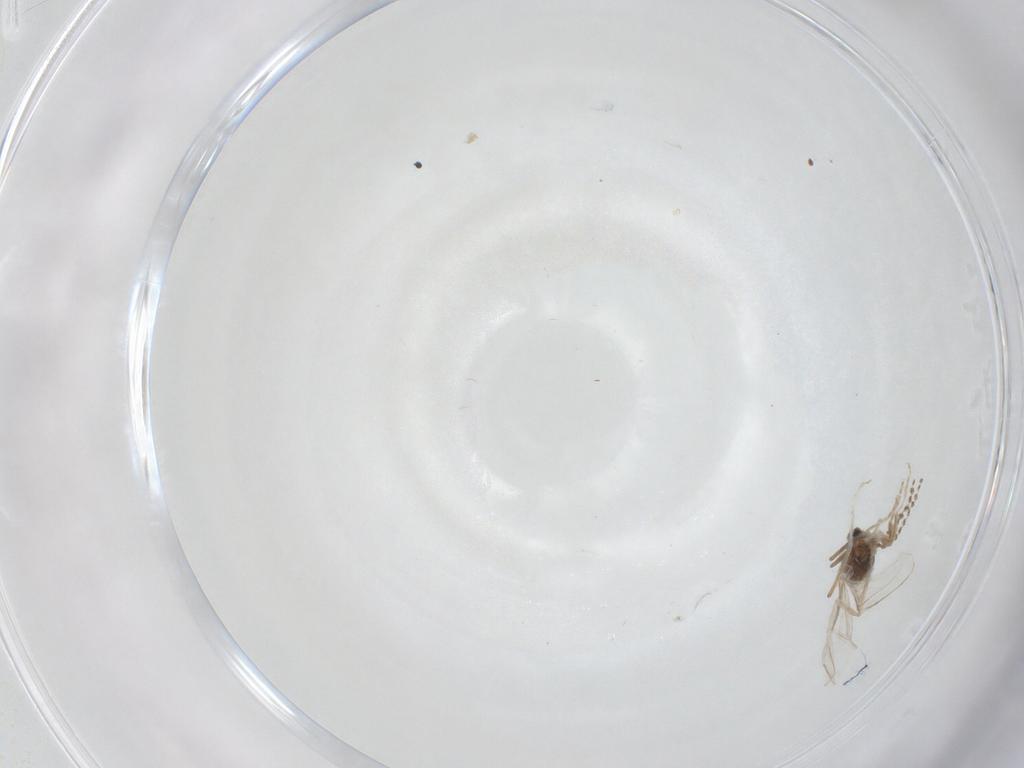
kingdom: Animalia
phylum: Arthropoda
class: Insecta
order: Diptera
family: Cecidomyiidae
